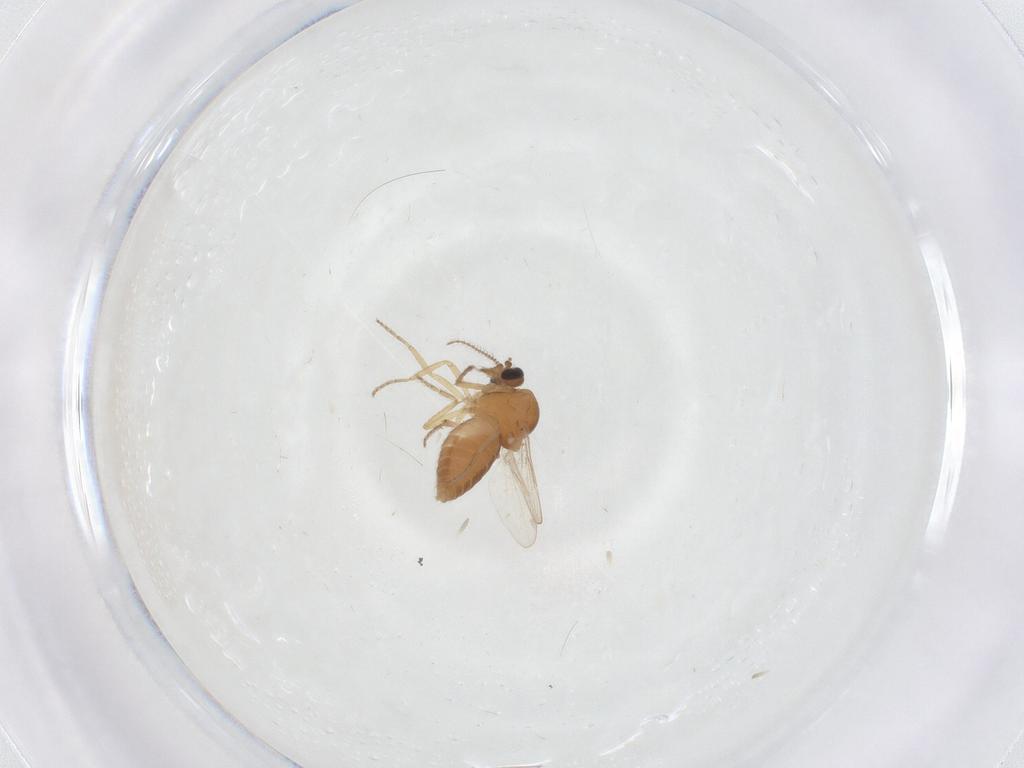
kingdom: Animalia
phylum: Arthropoda
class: Insecta
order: Diptera
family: Ceratopogonidae
